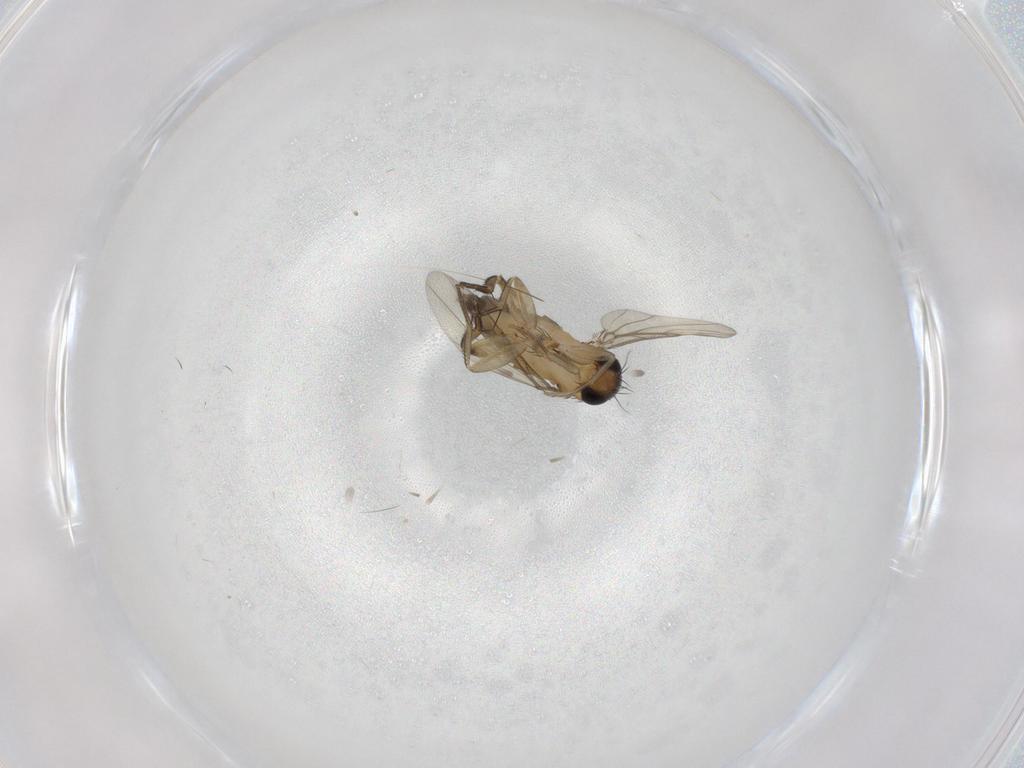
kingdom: Animalia
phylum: Arthropoda
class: Insecta
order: Diptera
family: Phoridae
